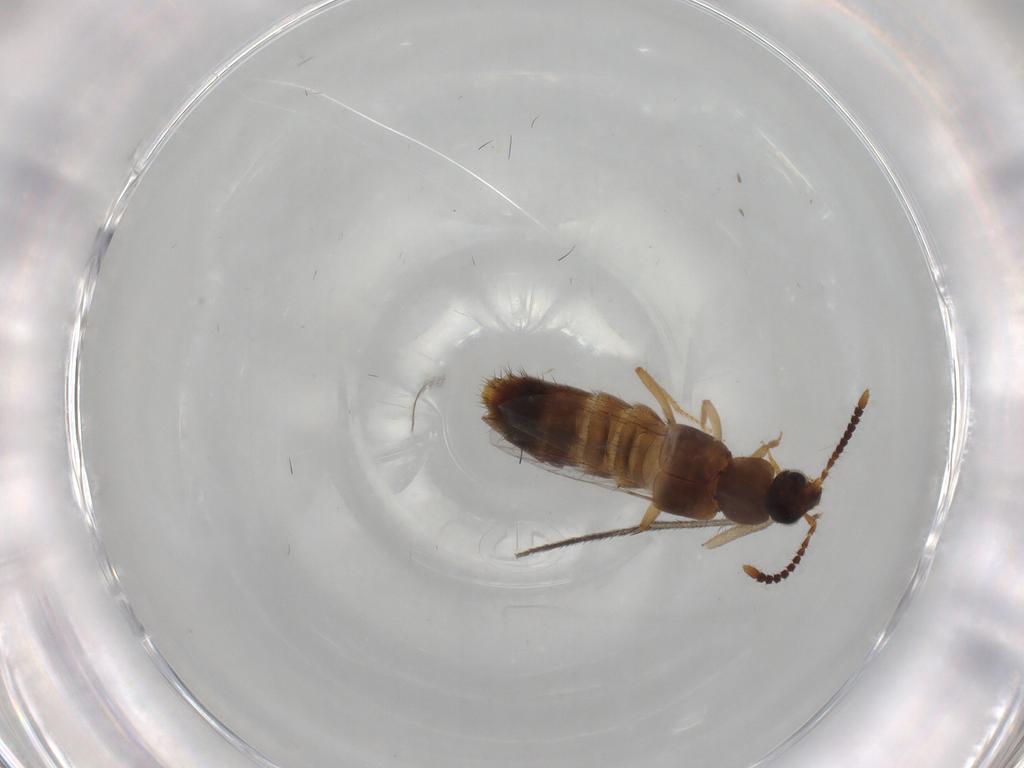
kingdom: Animalia
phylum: Arthropoda
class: Insecta
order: Coleoptera
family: Staphylinidae
